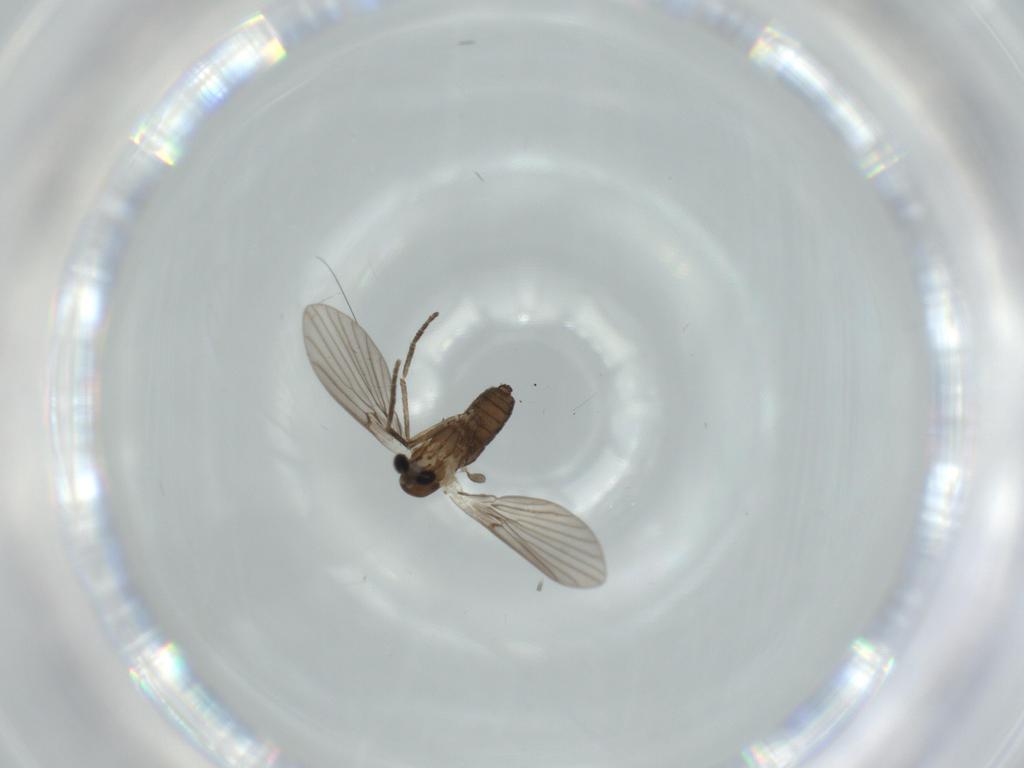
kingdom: Animalia
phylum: Arthropoda
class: Insecta
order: Diptera
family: Psychodidae
